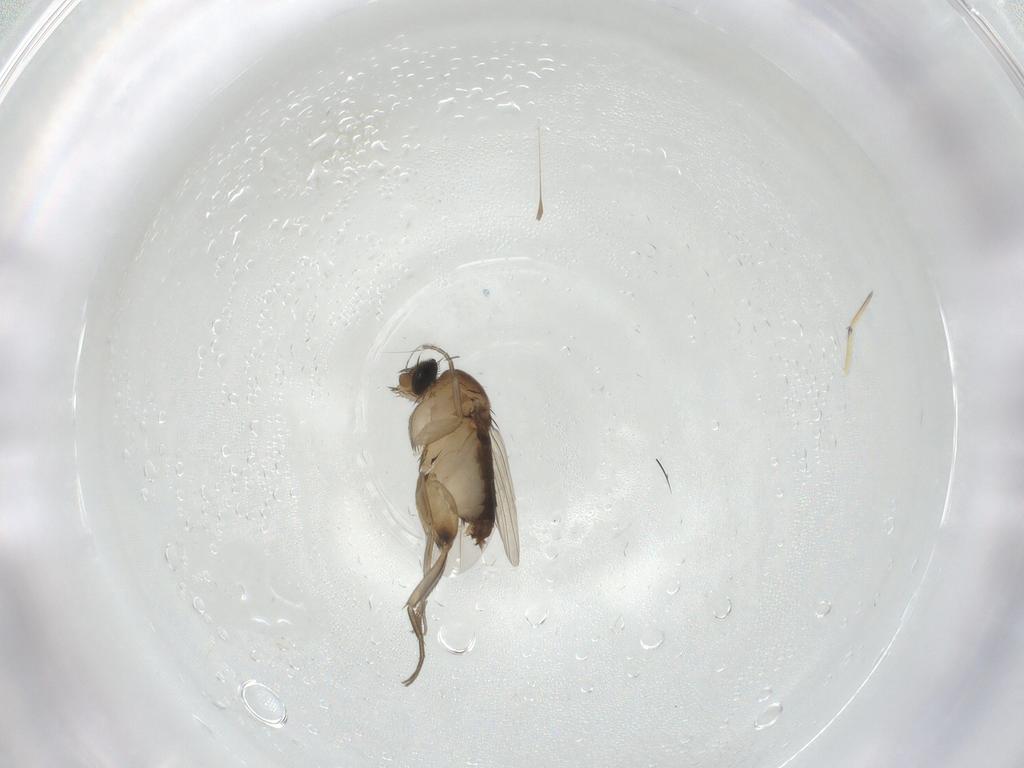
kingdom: Animalia
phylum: Arthropoda
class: Insecta
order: Diptera
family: Phoridae
